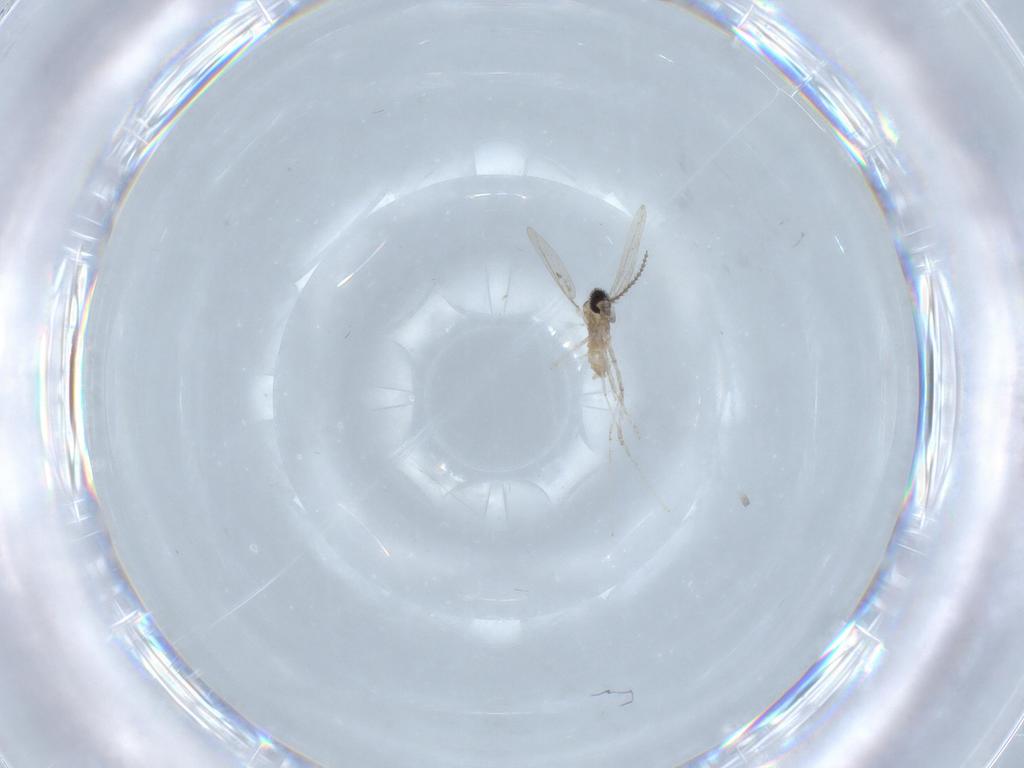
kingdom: Animalia
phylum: Arthropoda
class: Insecta
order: Diptera
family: Cecidomyiidae
